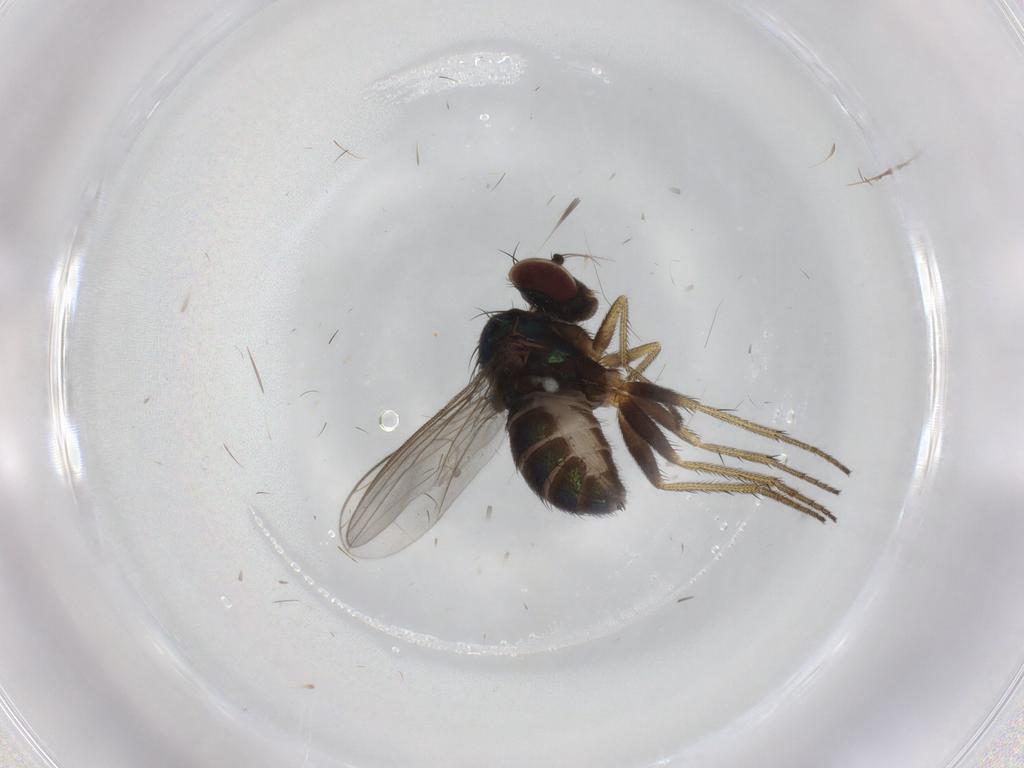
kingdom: Animalia
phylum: Arthropoda
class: Insecta
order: Diptera
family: Dolichopodidae
